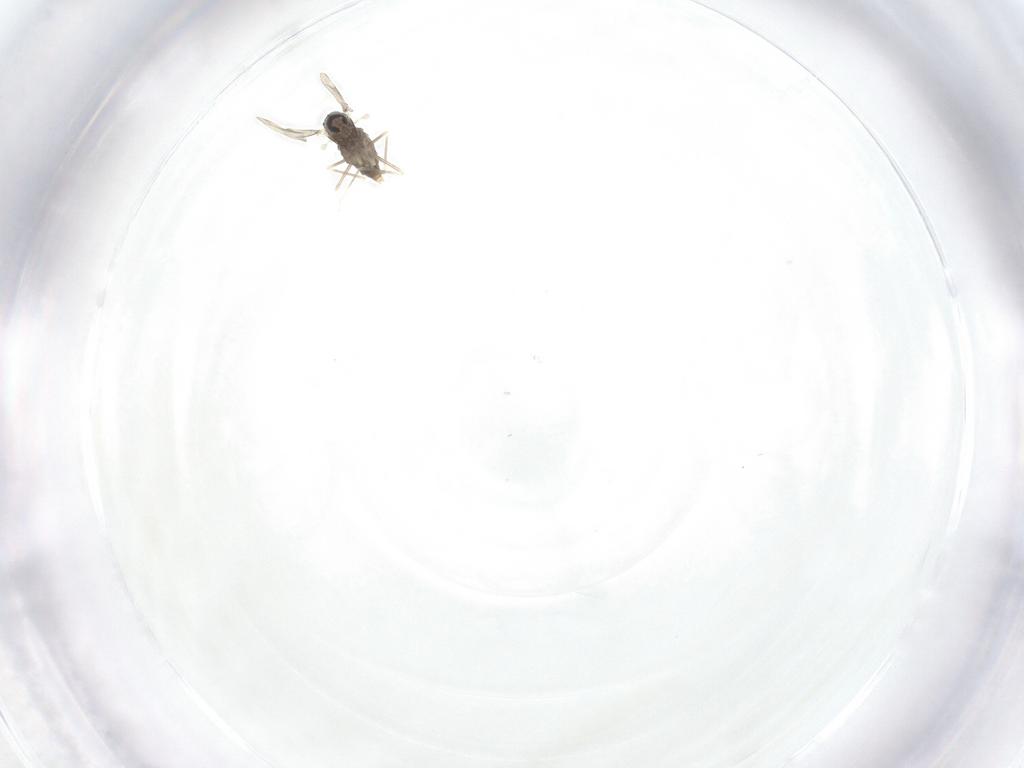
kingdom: Animalia
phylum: Arthropoda
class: Insecta
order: Diptera
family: Cecidomyiidae
